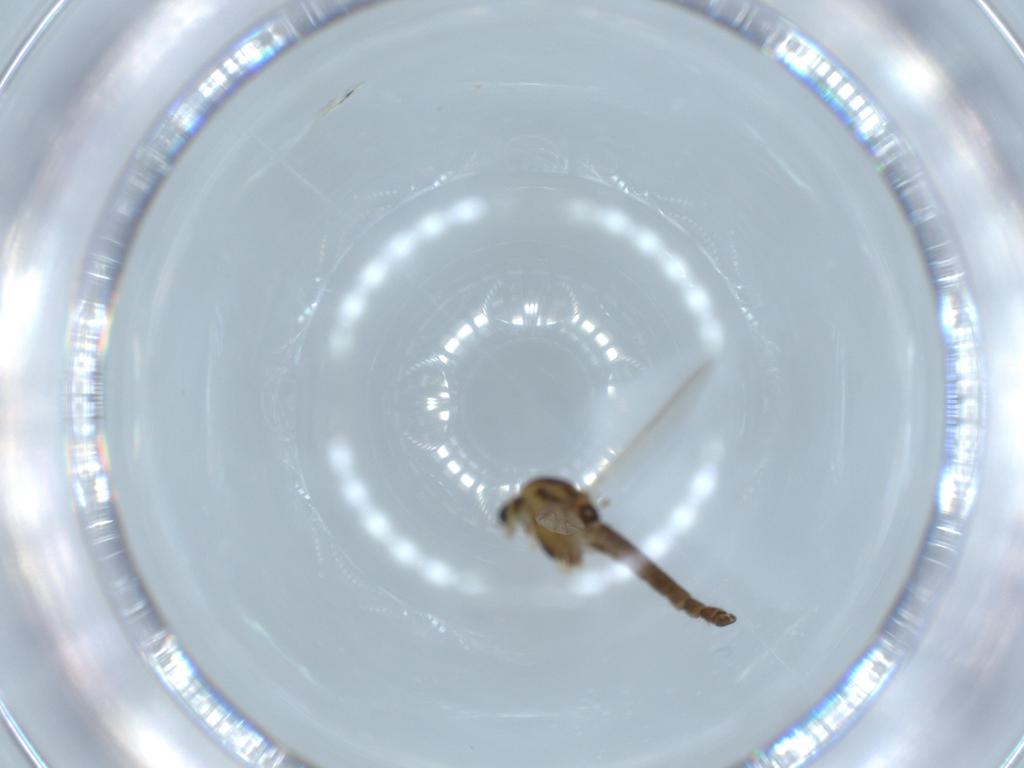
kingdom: Animalia
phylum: Arthropoda
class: Insecta
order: Diptera
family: Chironomidae
